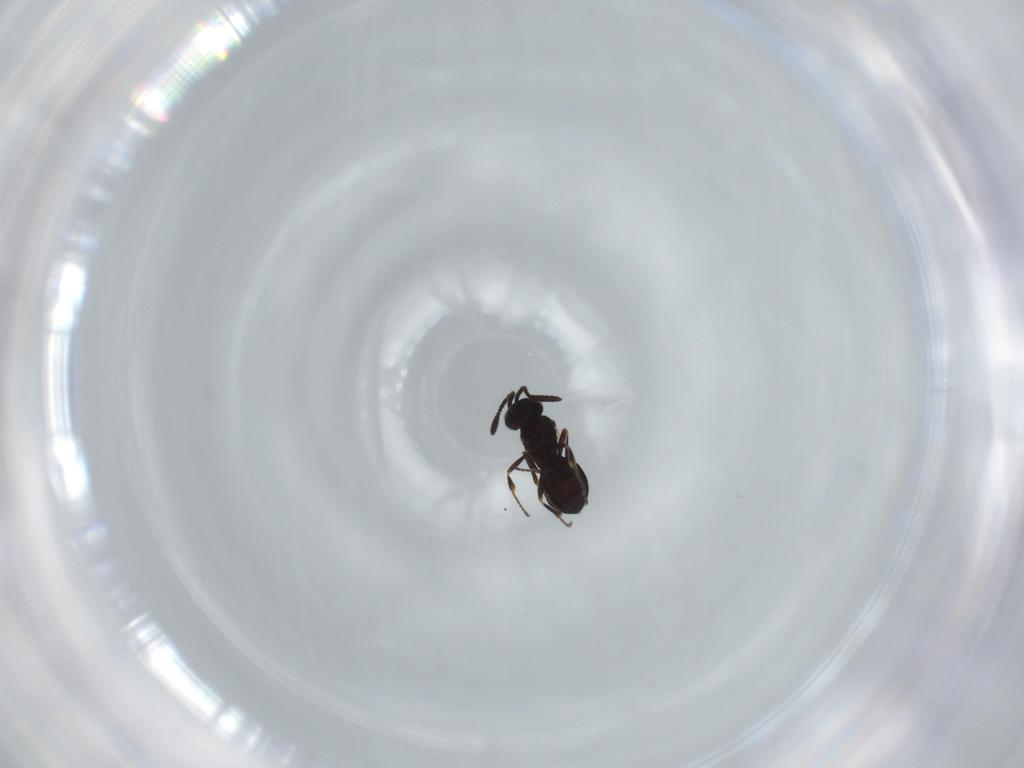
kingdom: Animalia
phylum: Arthropoda
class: Insecta
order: Hymenoptera
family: Scelionidae
